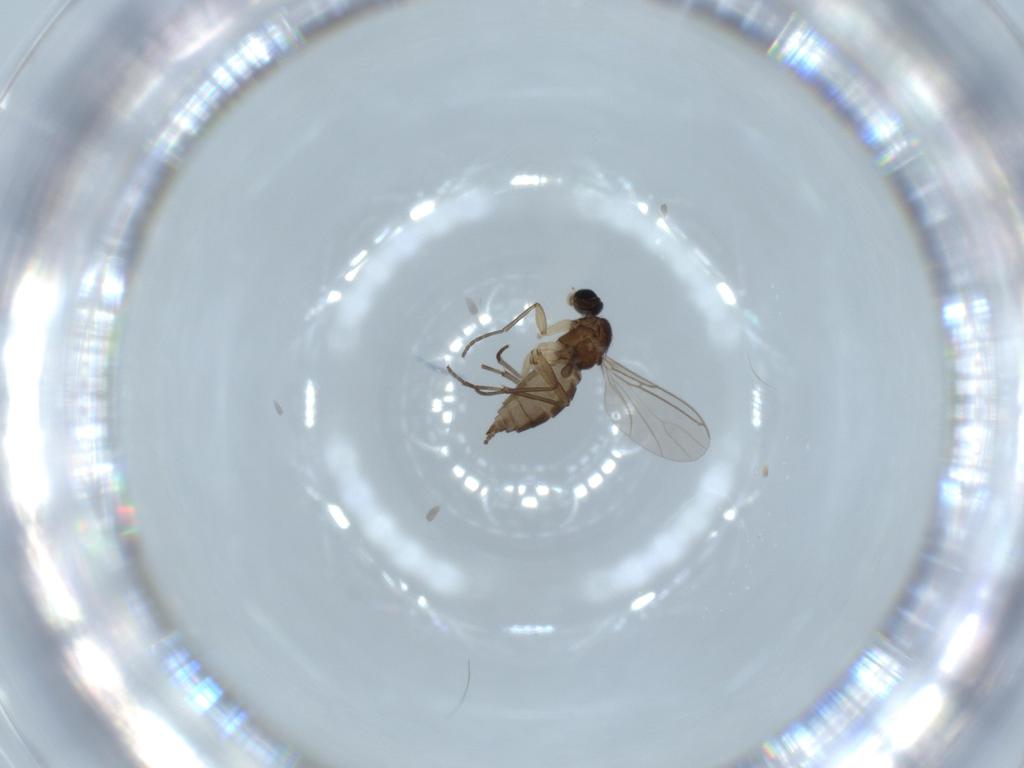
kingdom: Animalia
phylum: Arthropoda
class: Insecta
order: Diptera
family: Sciaridae
